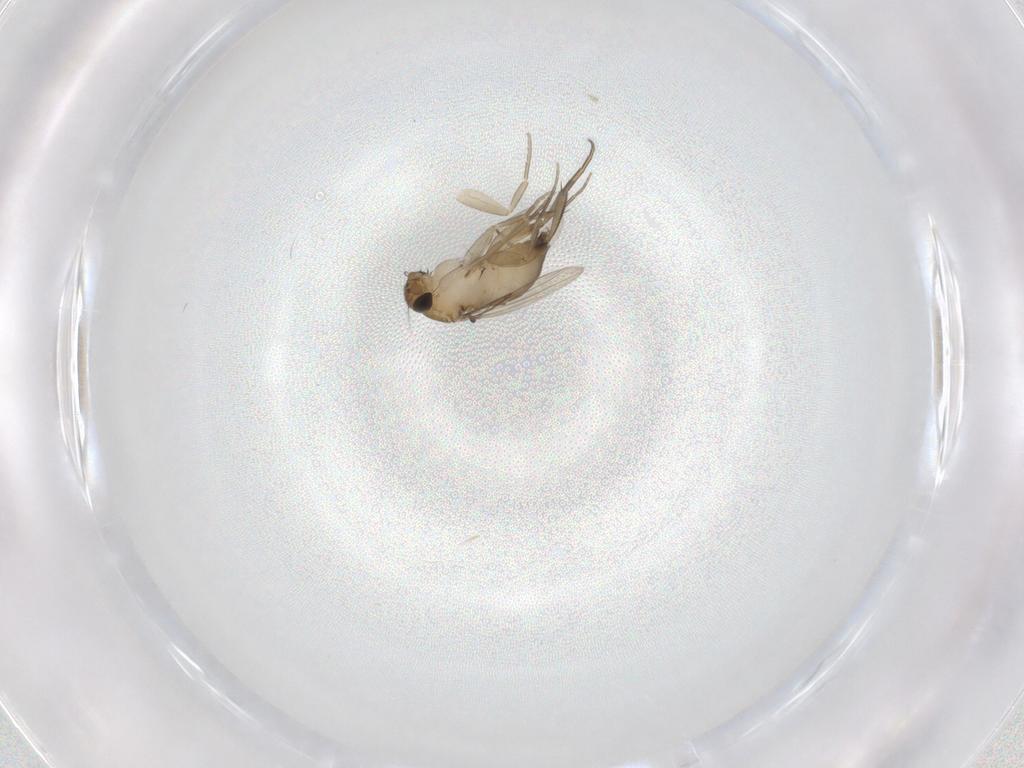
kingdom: Animalia
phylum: Arthropoda
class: Insecta
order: Diptera
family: Phoridae
